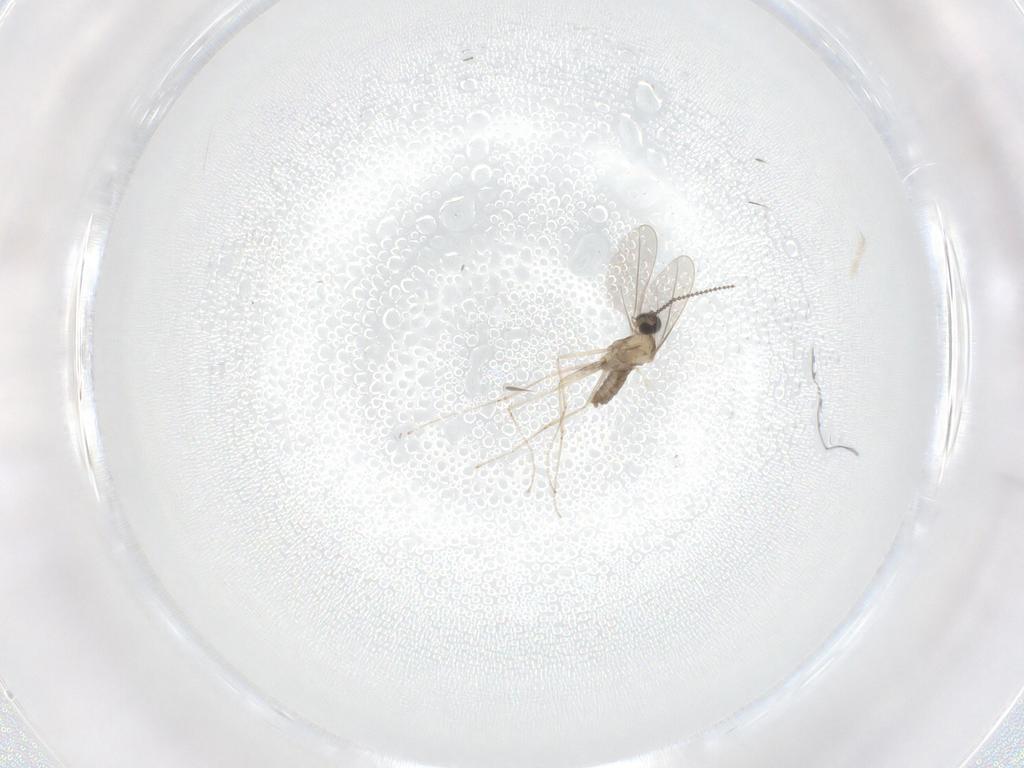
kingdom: Animalia
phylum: Arthropoda
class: Insecta
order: Diptera
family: Cecidomyiidae
